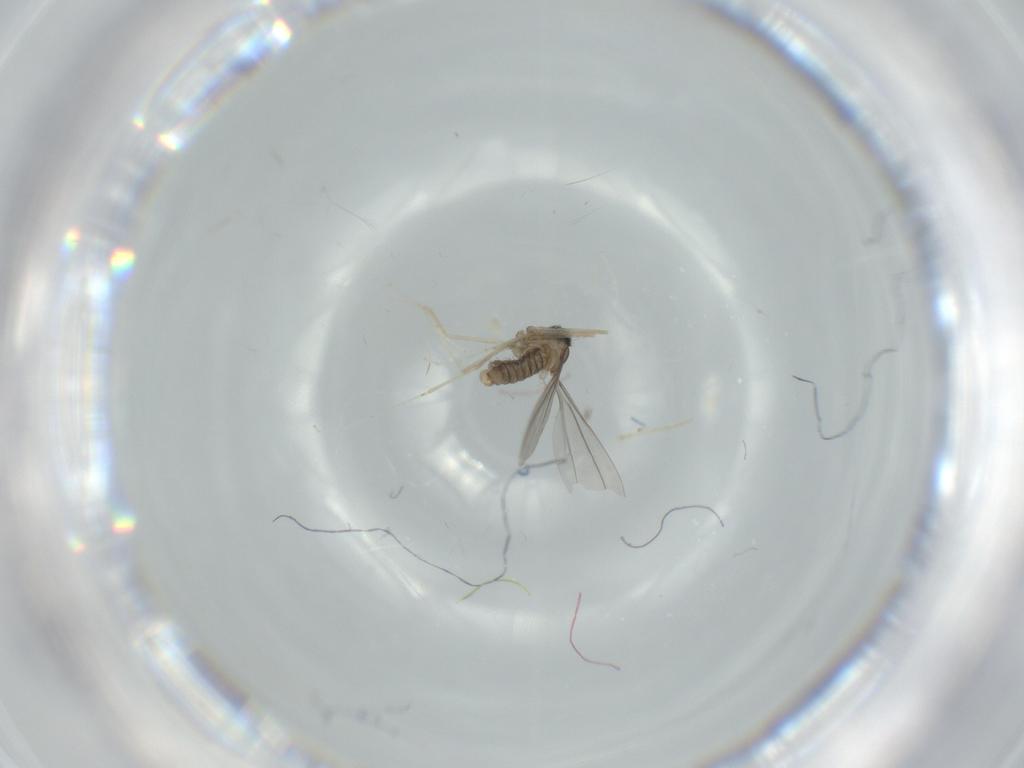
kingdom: Animalia
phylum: Arthropoda
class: Insecta
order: Diptera
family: Cecidomyiidae
